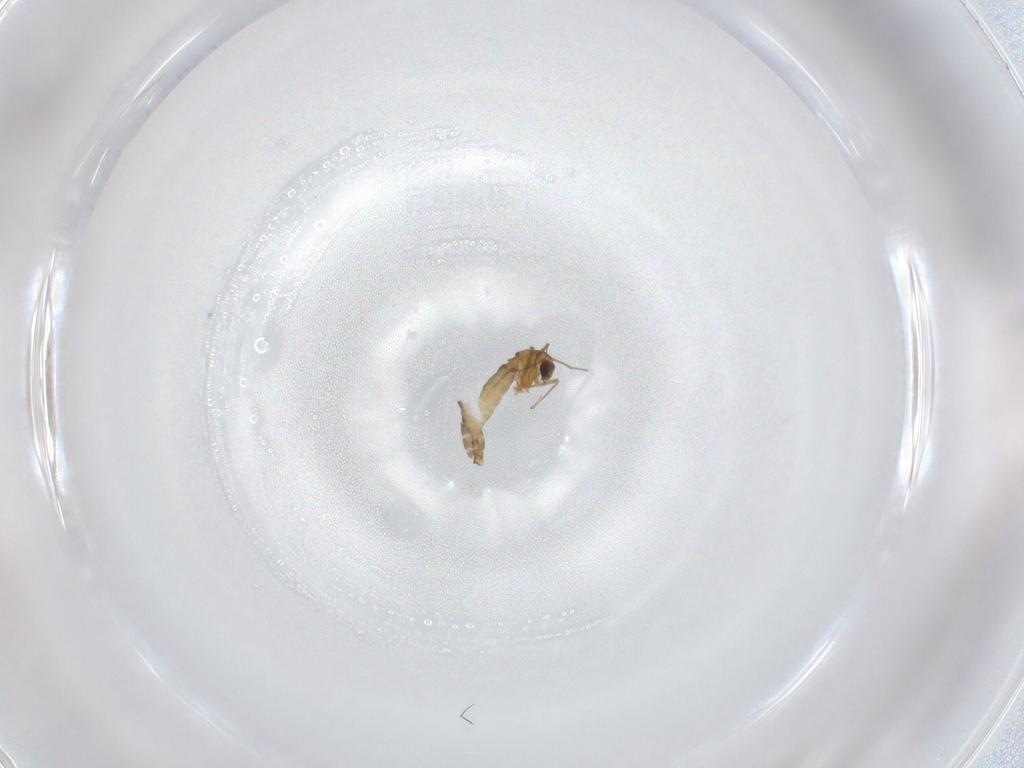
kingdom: Animalia
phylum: Arthropoda
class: Insecta
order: Diptera
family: Chironomidae
